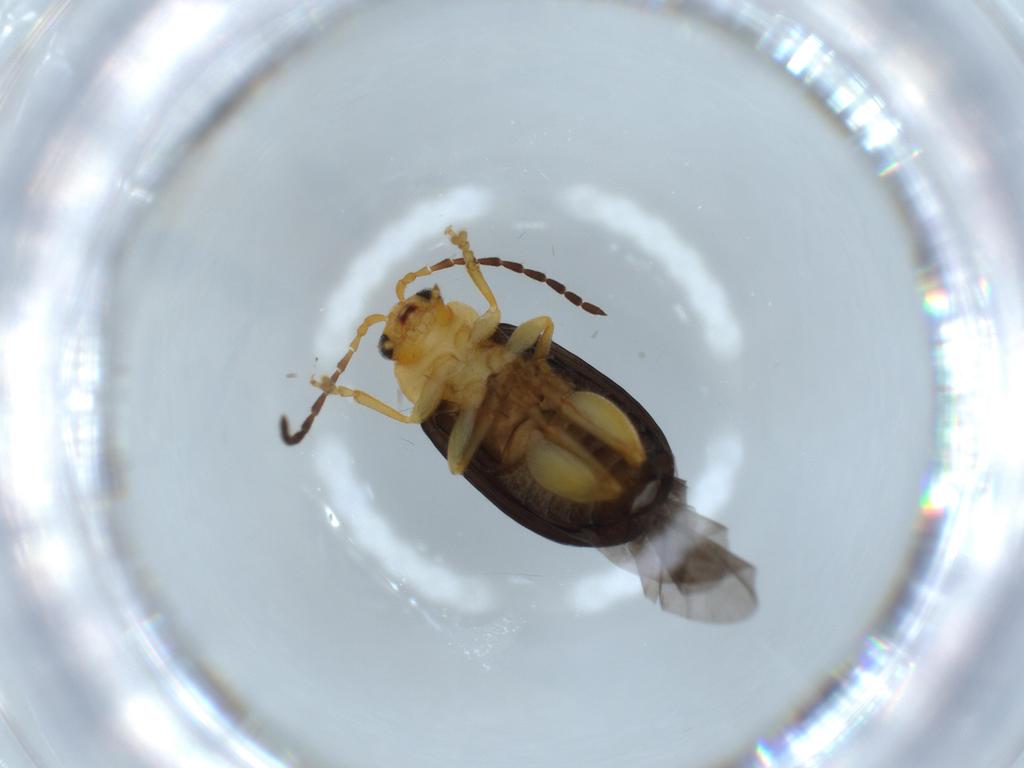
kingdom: Animalia
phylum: Arthropoda
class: Insecta
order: Coleoptera
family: Chrysomelidae
